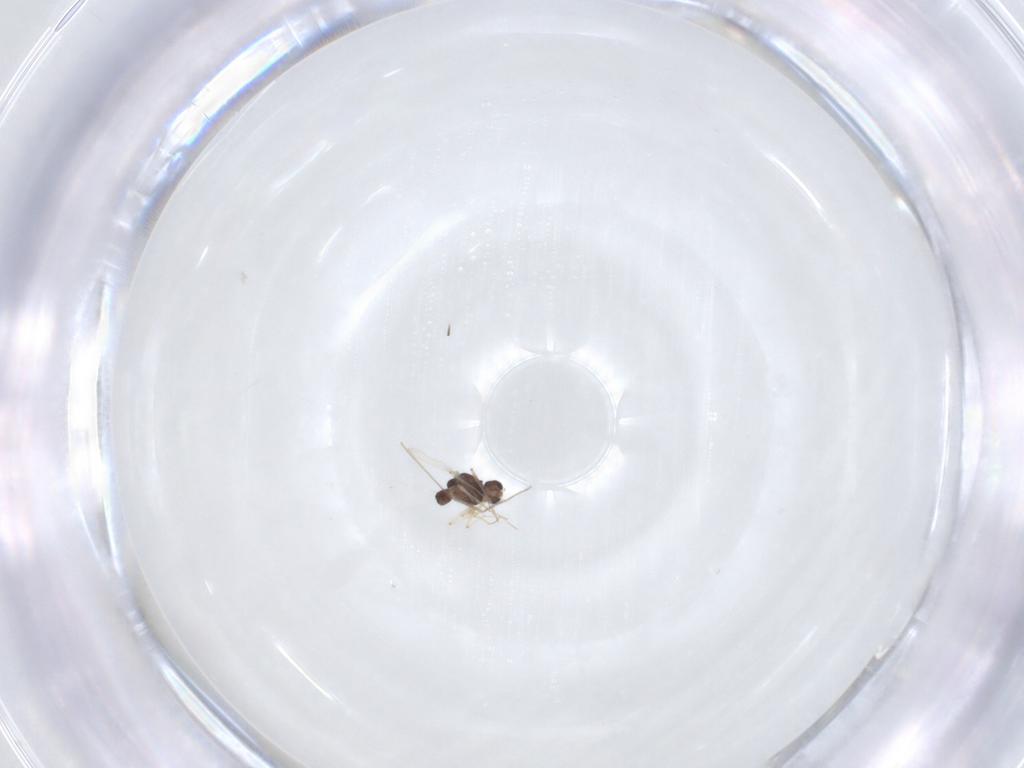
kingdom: Animalia
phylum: Arthropoda
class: Insecta
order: Diptera
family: Chironomidae
